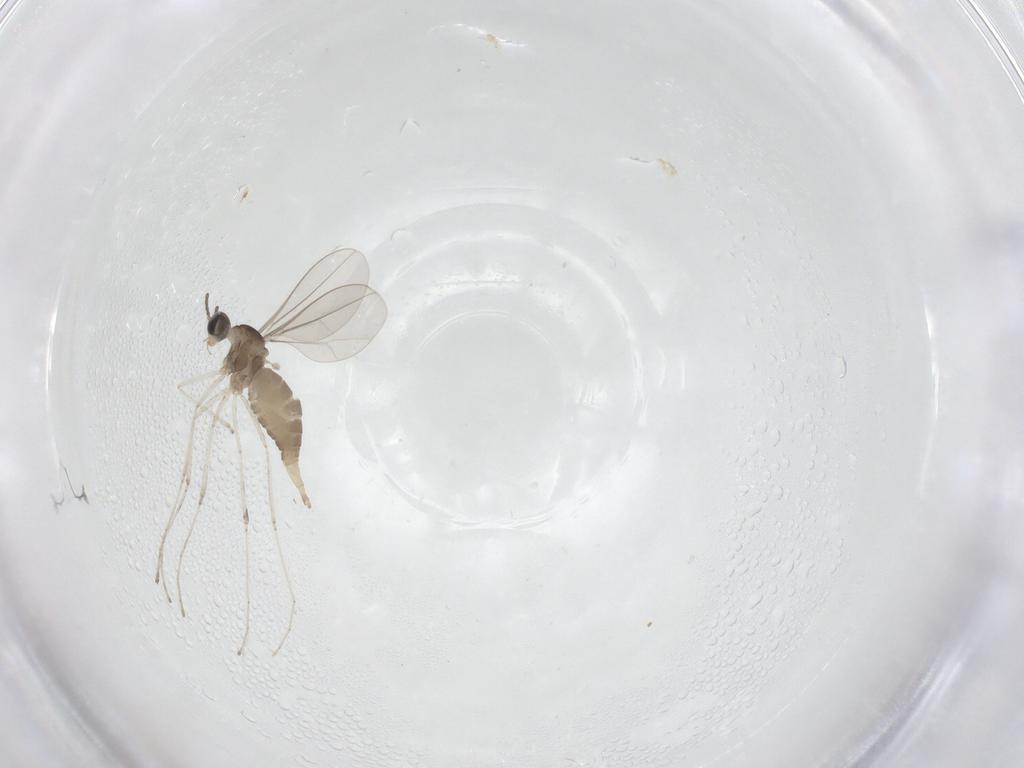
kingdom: Animalia
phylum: Arthropoda
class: Insecta
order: Diptera
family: Cecidomyiidae
